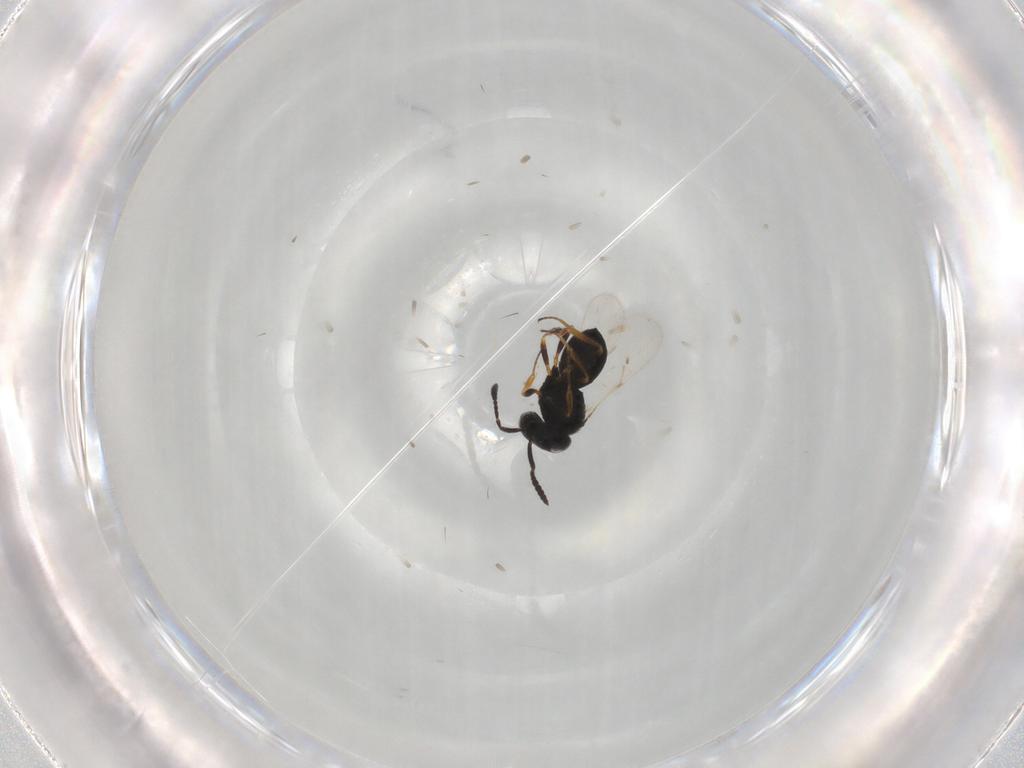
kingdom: Animalia
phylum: Arthropoda
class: Insecta
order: Hymenoptera
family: Scelionidae
